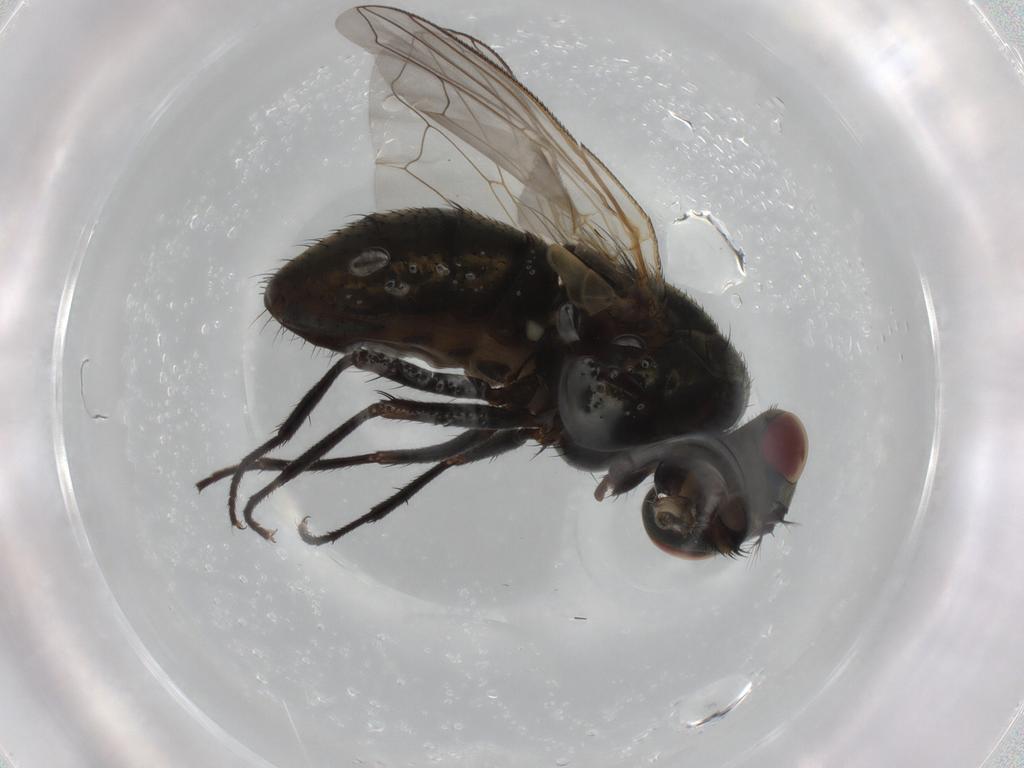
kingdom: Animalia
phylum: Arthropoda
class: Insecta
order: Diptera
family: Muscidae
